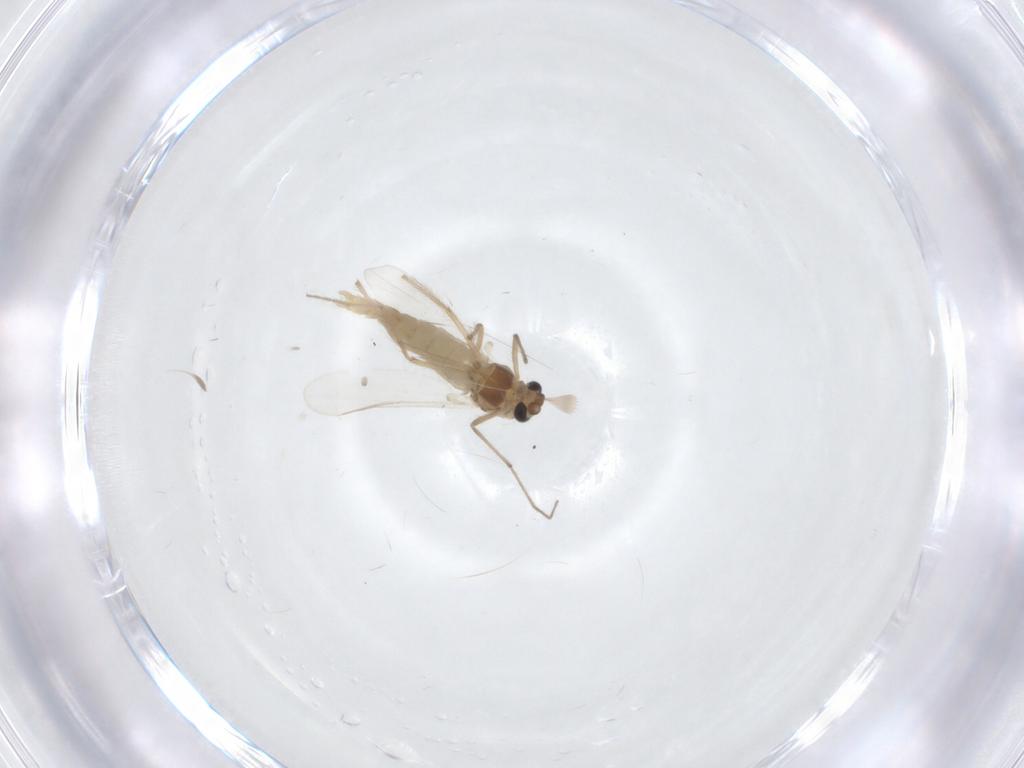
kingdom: Animalia
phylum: Arthropoda
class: Insecta
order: Diptera
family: Chironomidae
